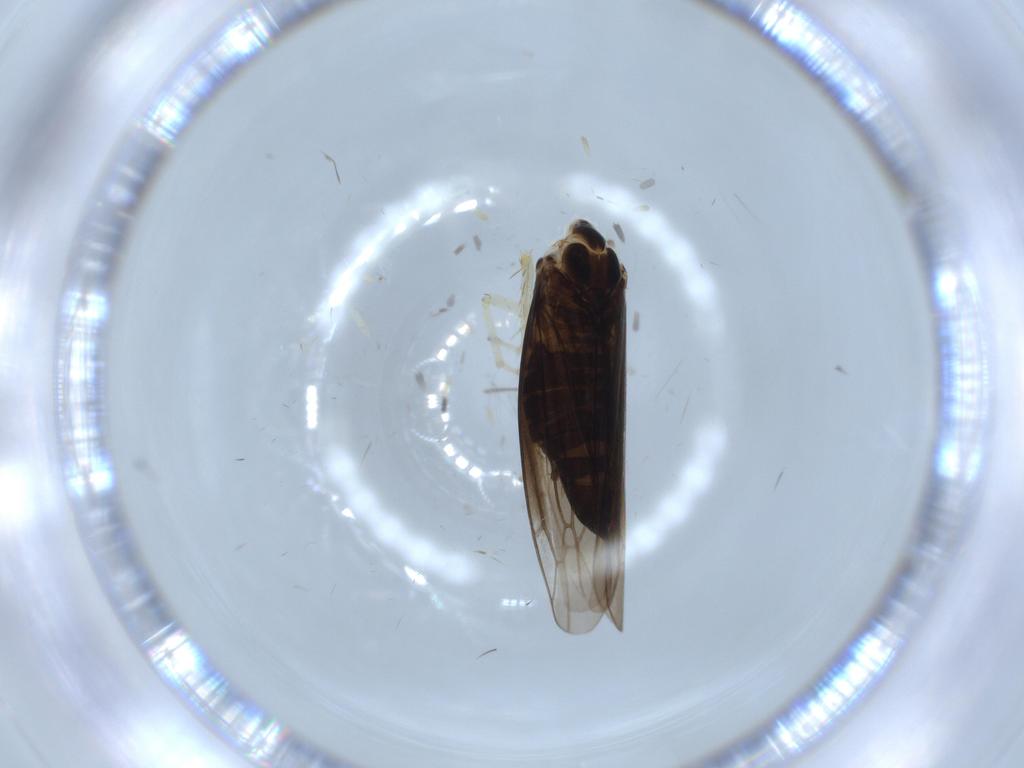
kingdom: Animalia
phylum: Arthropoda
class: Insecta
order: Hemiptera
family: Cicadellidae
